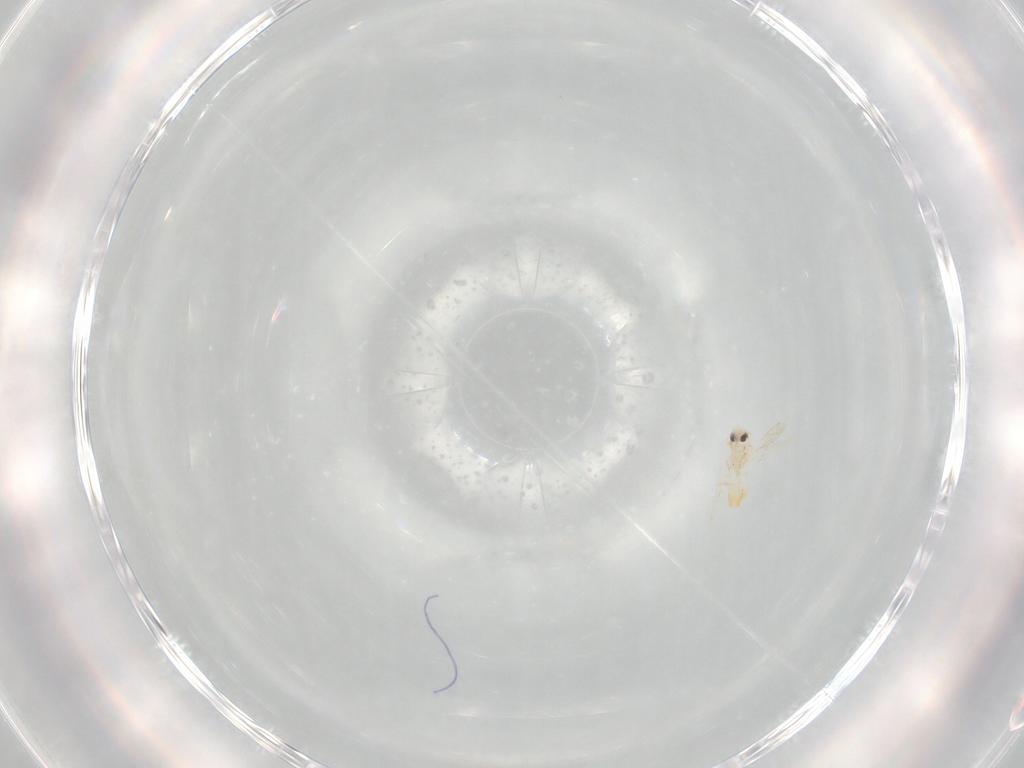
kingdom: Animalia
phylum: Arthropoda
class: Insecta
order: Hemiptera
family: Aleyrodidae
